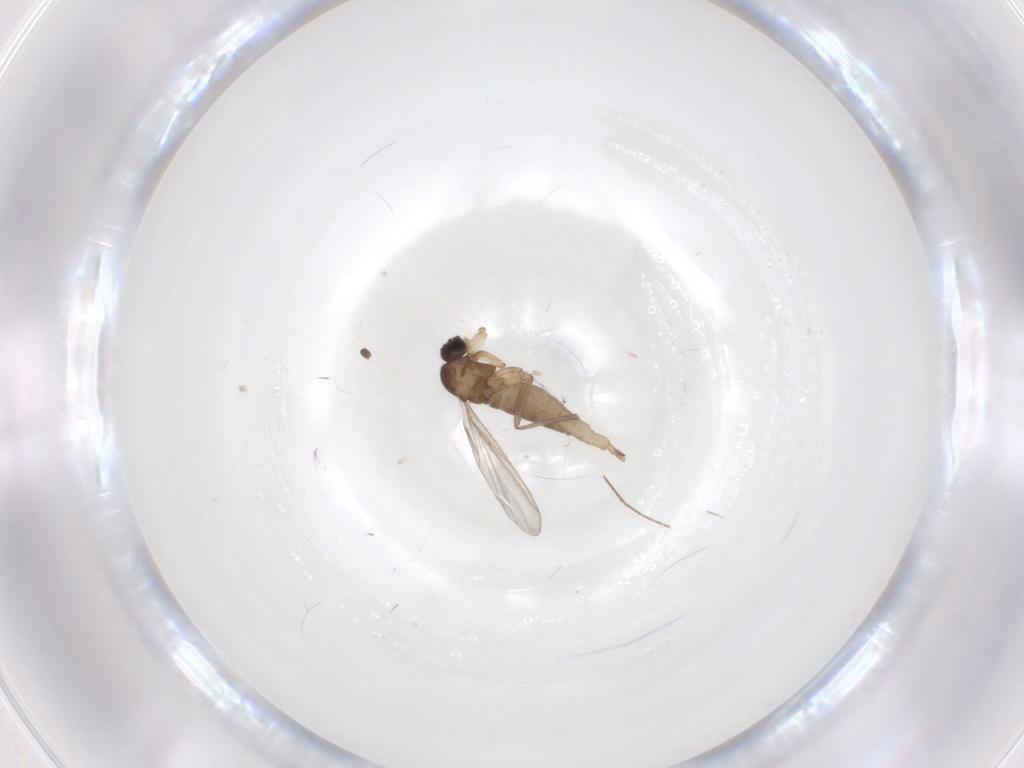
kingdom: Animalia
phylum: Arthropoda
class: Insecta
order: Diptera
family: Sciaridae
